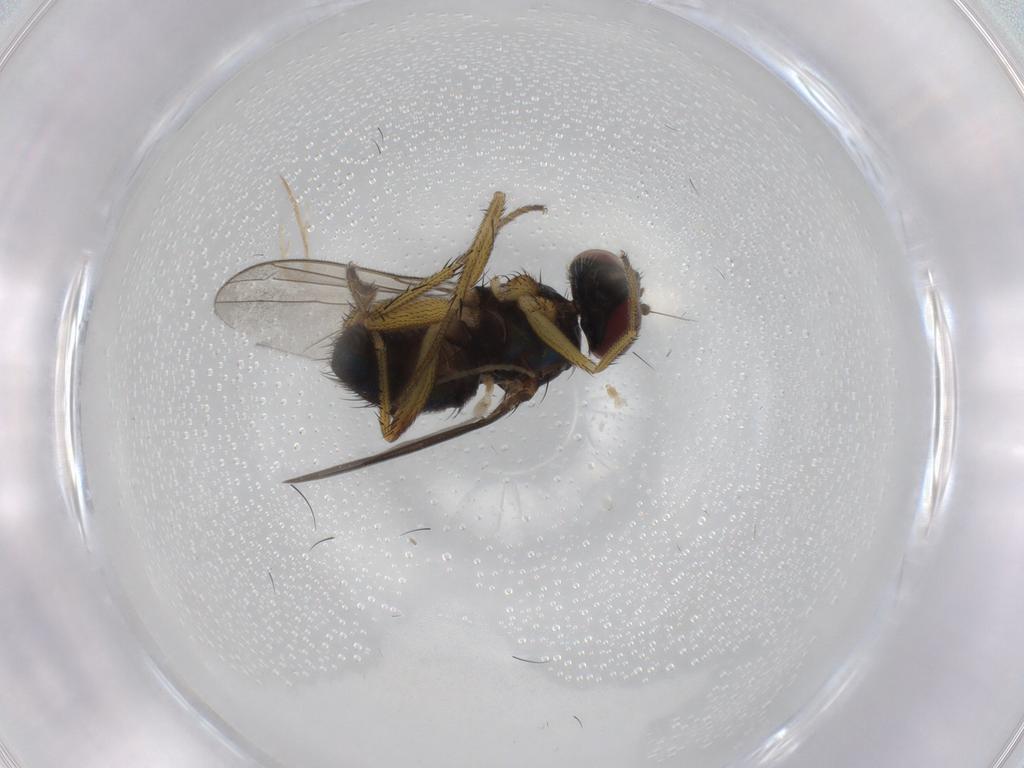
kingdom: Animalia
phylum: Arthropoda
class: Insecta
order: Diptera
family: Dolichopodidae
